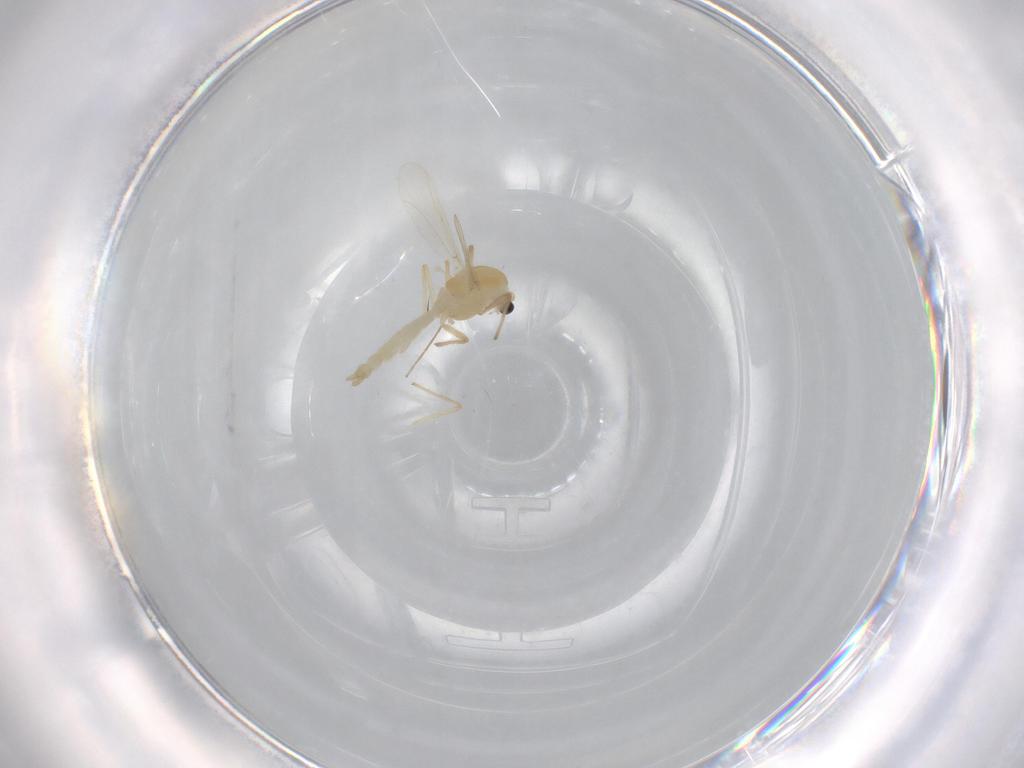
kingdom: Animalia
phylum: Arthropoda
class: Insecta
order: Diptera
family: Chironomidae
